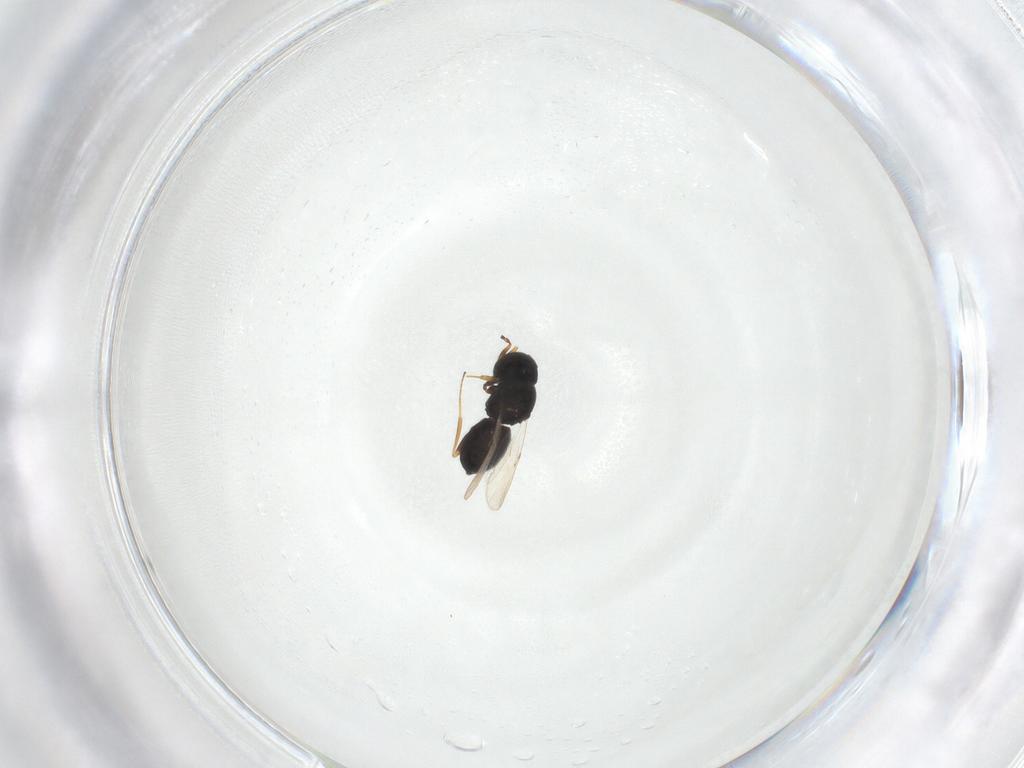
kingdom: Animalia
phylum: Arthropoda
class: Insecta
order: Hymenoptera
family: Scelionidae
